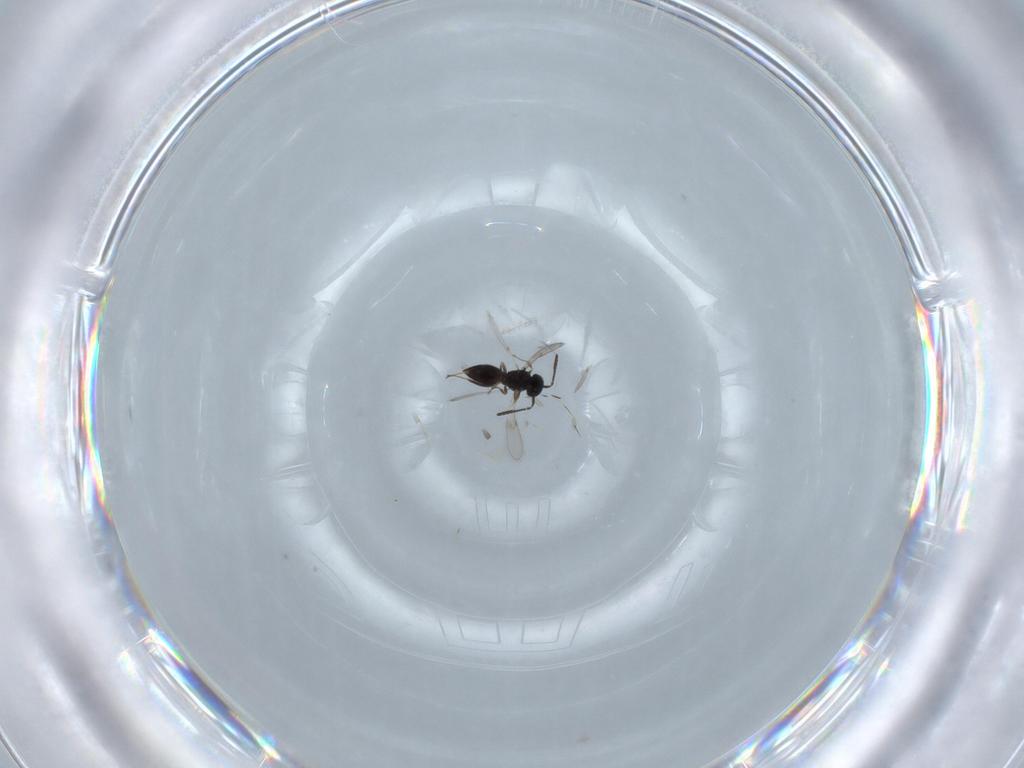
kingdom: Animalia
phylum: Arthropoda
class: Insecta
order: Hymenoptera
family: Scelionidae
